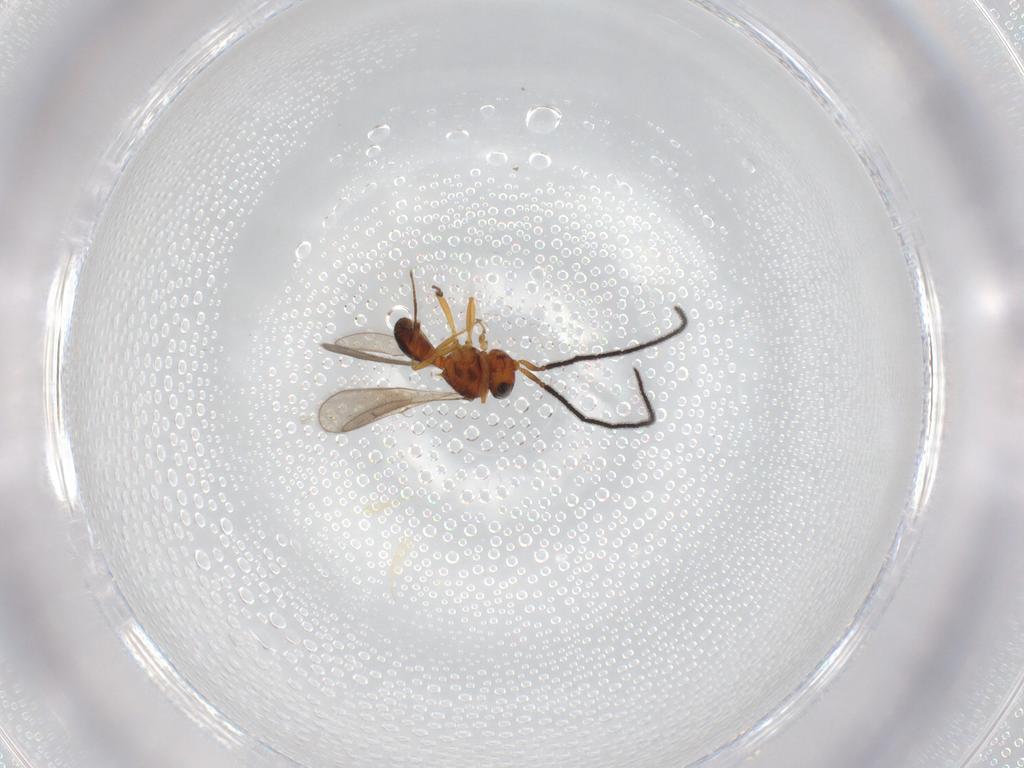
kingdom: Animalia
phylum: Arthropoda
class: Insecta
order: Hymenoptera
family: Scelionidae
